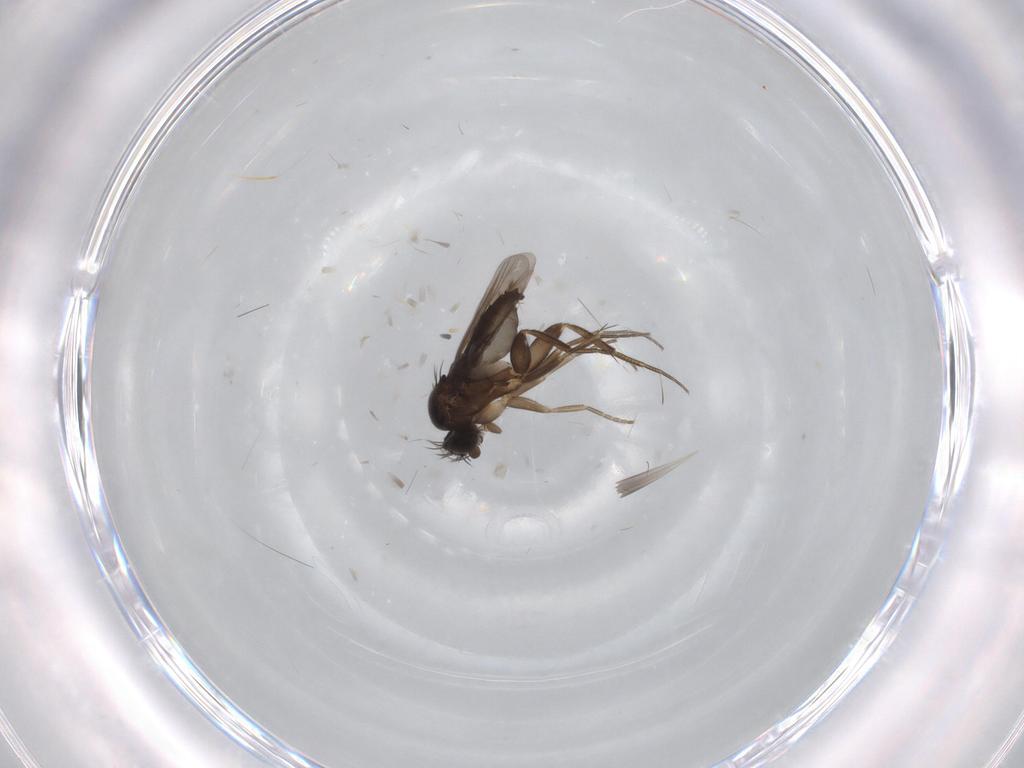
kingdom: Animalia
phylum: Arthropoda
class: Insecta
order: Diptera
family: Phoridae
